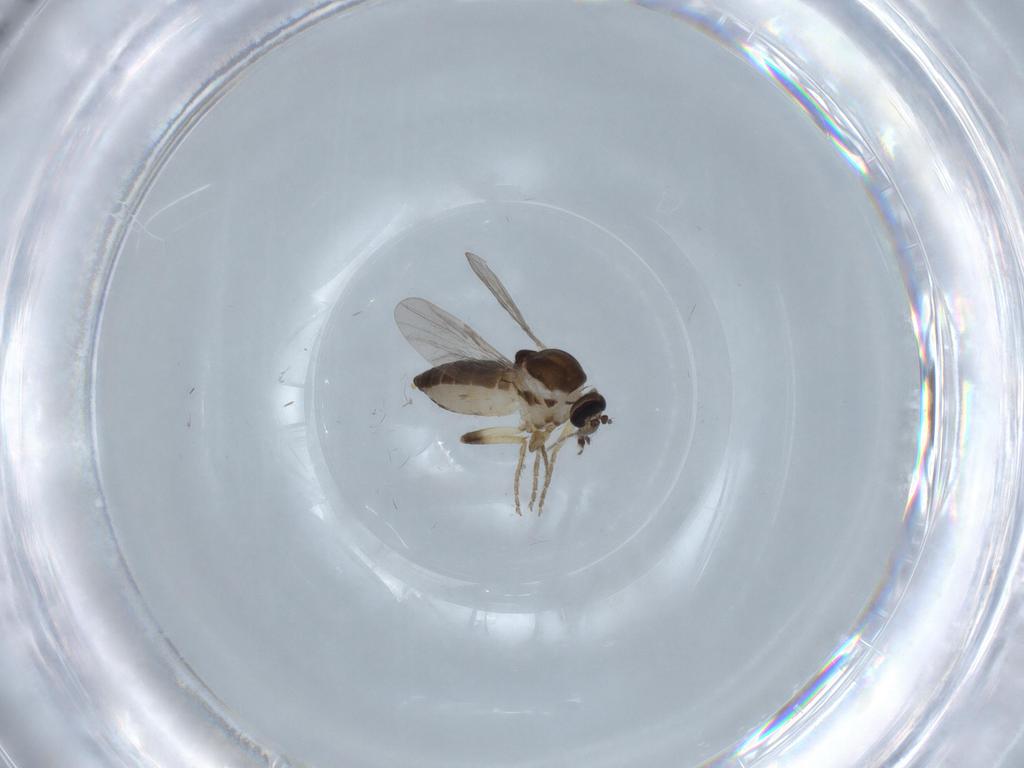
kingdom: Animalia
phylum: Arthropoda
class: Insecta
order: Diptera
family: Ceratopogonidae
